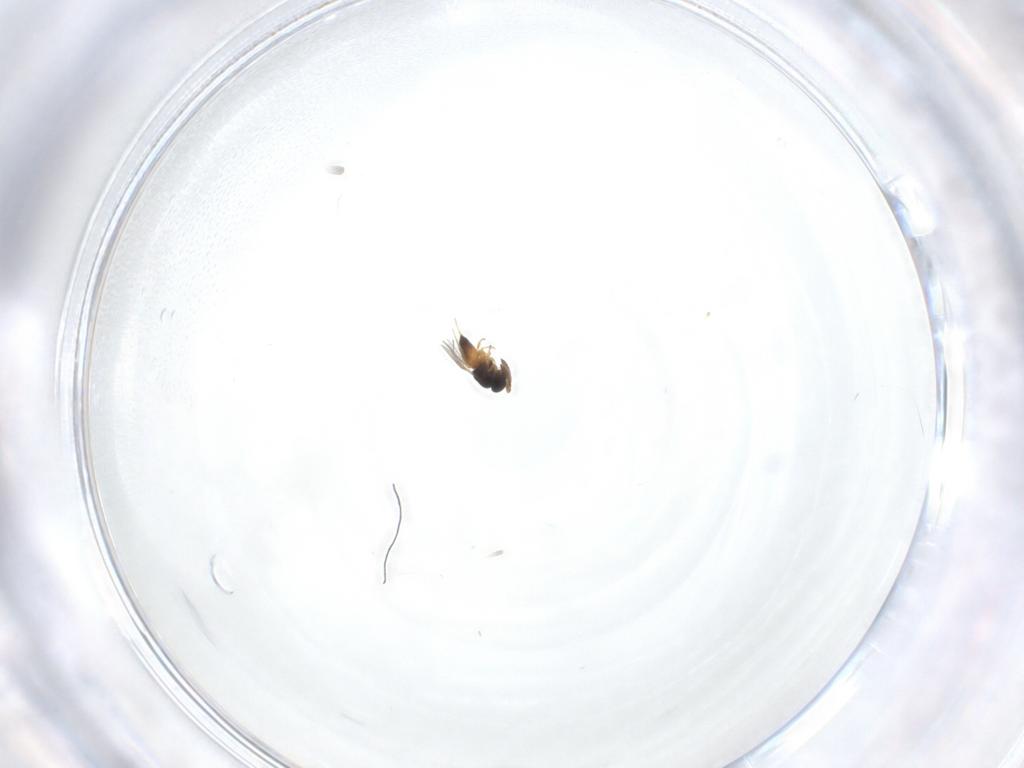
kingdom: Animalia
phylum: Arthropoda
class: Insecta
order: Hymenoptera
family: Scelionidae
